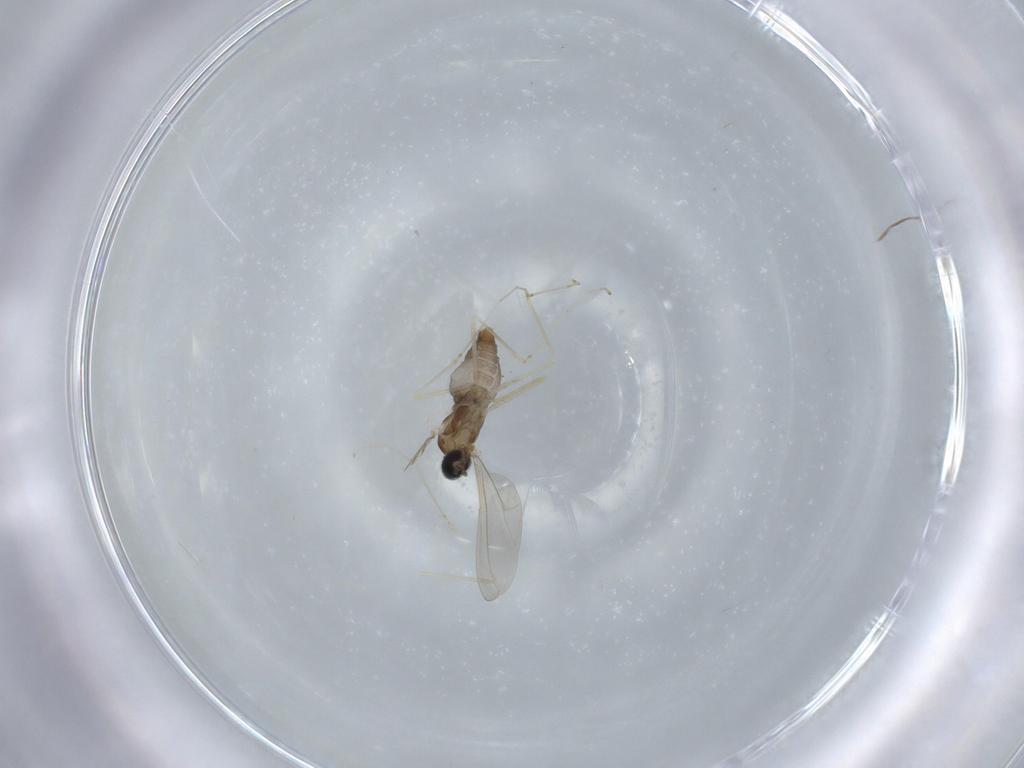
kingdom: Animalia
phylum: Arthropoda
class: Insecta
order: Diptera
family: Cecidomyiidae
